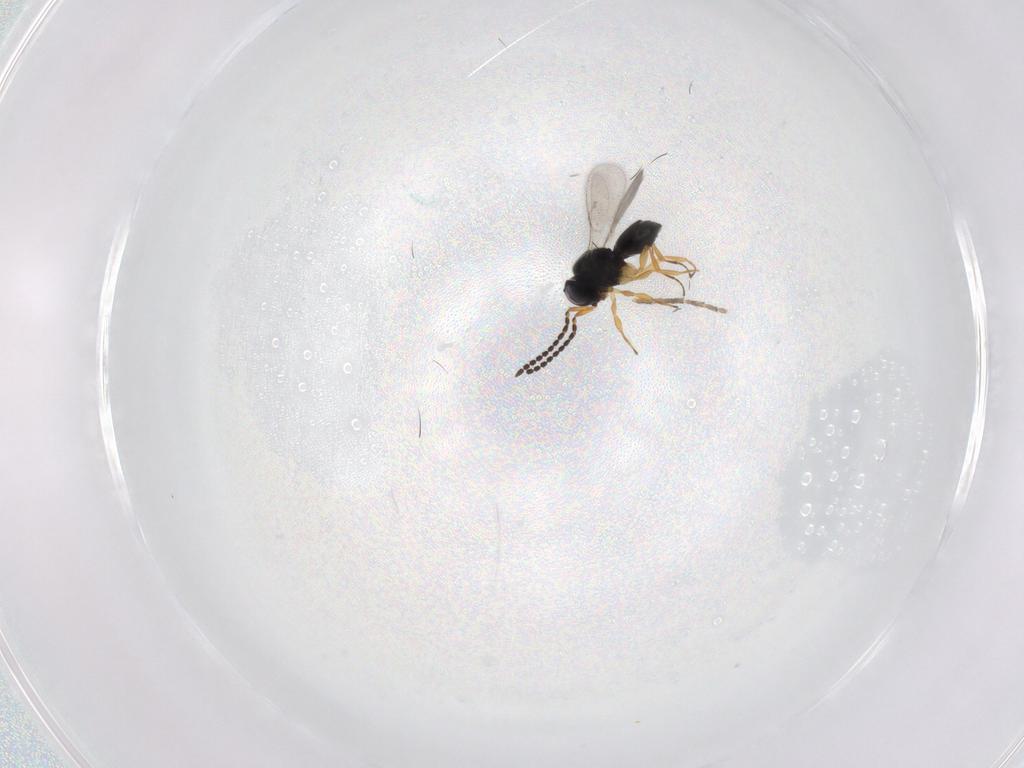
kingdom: Animalia
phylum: Arthropoda
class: Insecta
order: Hymenoptera
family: Scelionidae
